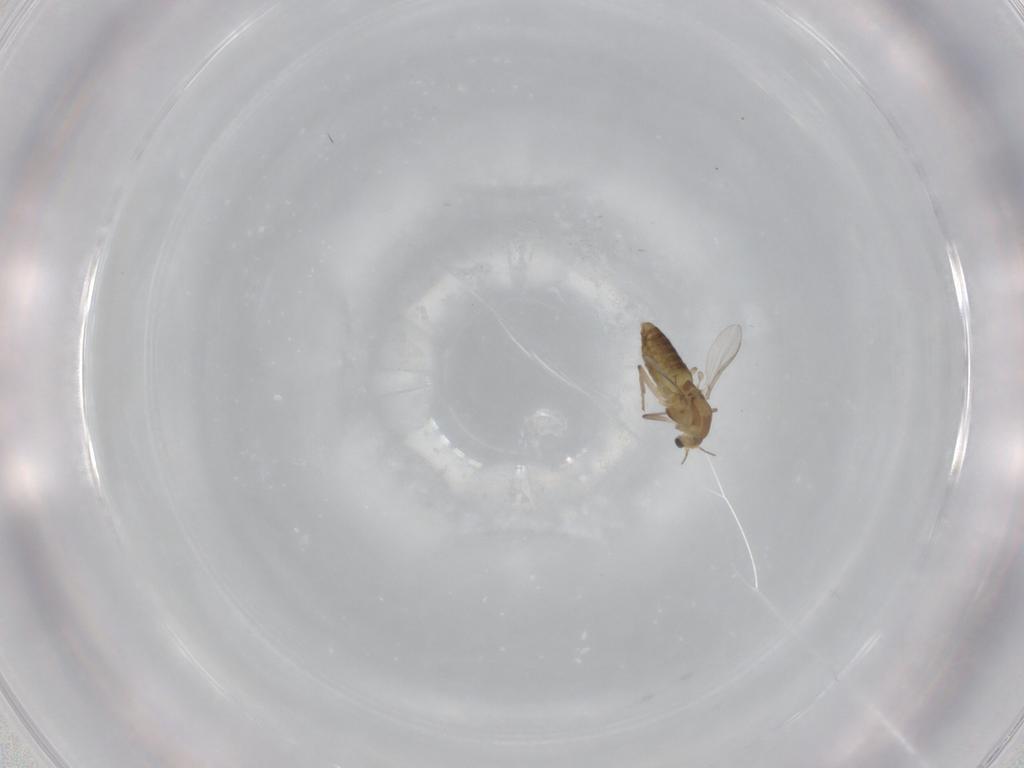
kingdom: Animalia
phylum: Arthropoda
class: Insecta
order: Diptera
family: Chironomidae
